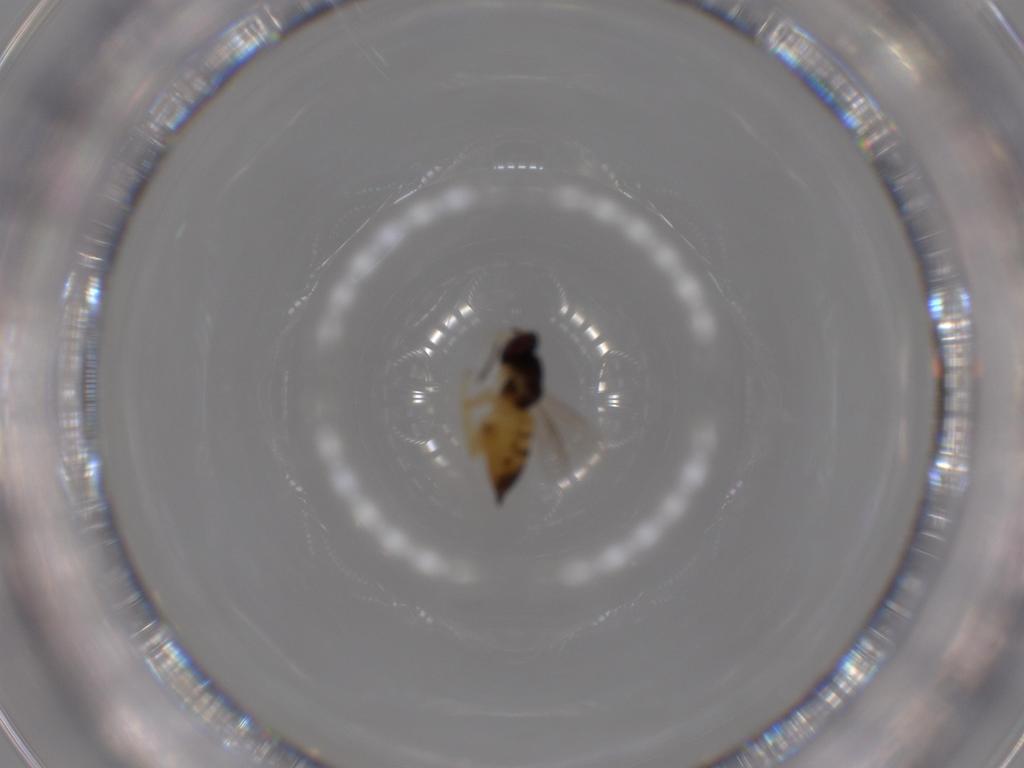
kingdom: Animalia
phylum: Arthropoda
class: Insecta
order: Hymenoptera
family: Eulophidae
